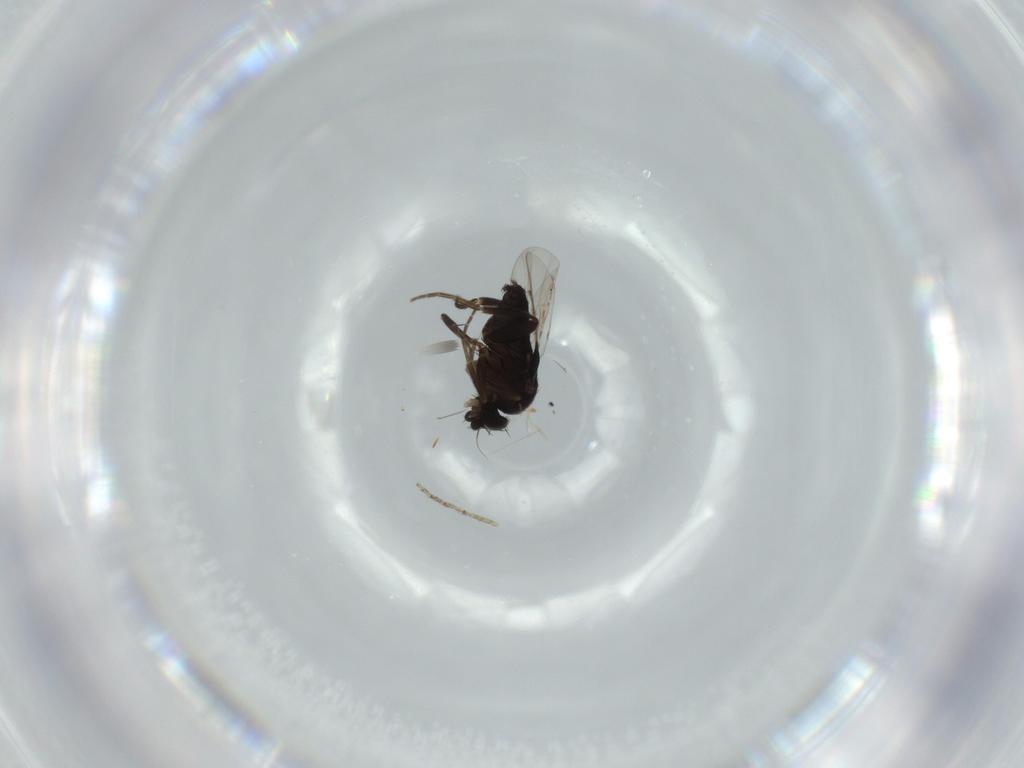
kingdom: Animalia
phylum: Arthropoda
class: Insecta
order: Diptera
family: Phoridae
